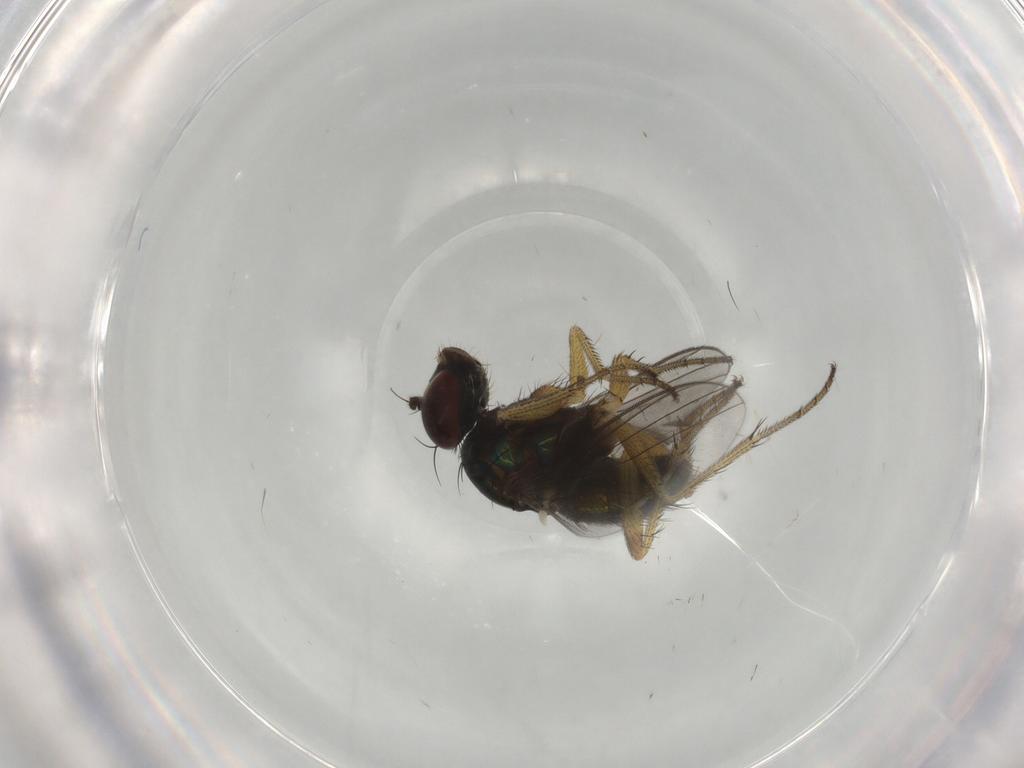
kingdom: Animalia
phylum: Arthropoda
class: Insecta
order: Diptera
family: Dolichopodidae
